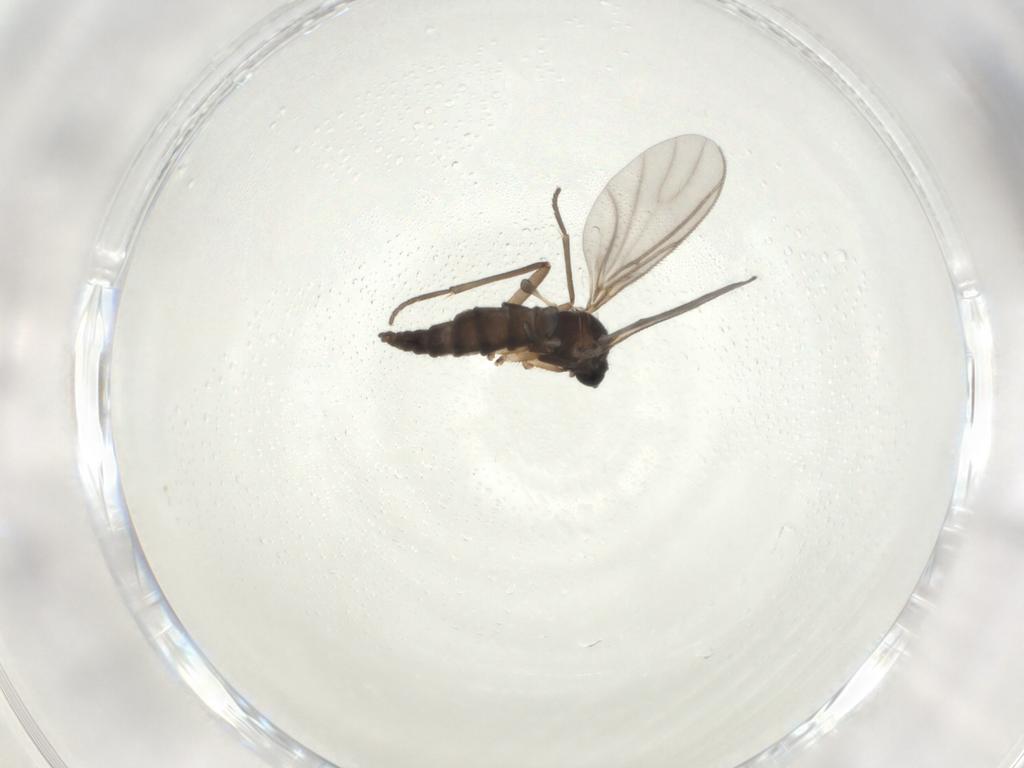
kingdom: Animalia
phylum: Arthropoda
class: Insecta
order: Diptera
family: Sciaridae
